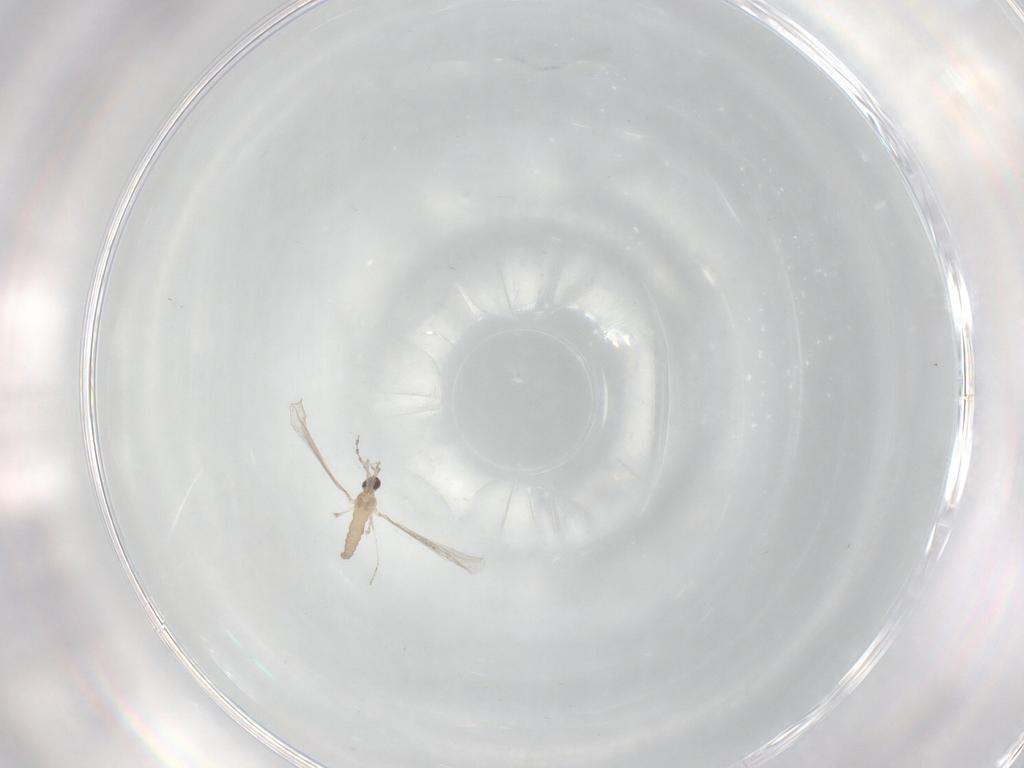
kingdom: Animalia
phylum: Arthropoda
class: Insecta
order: Diptera
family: Cecidomyiidae
